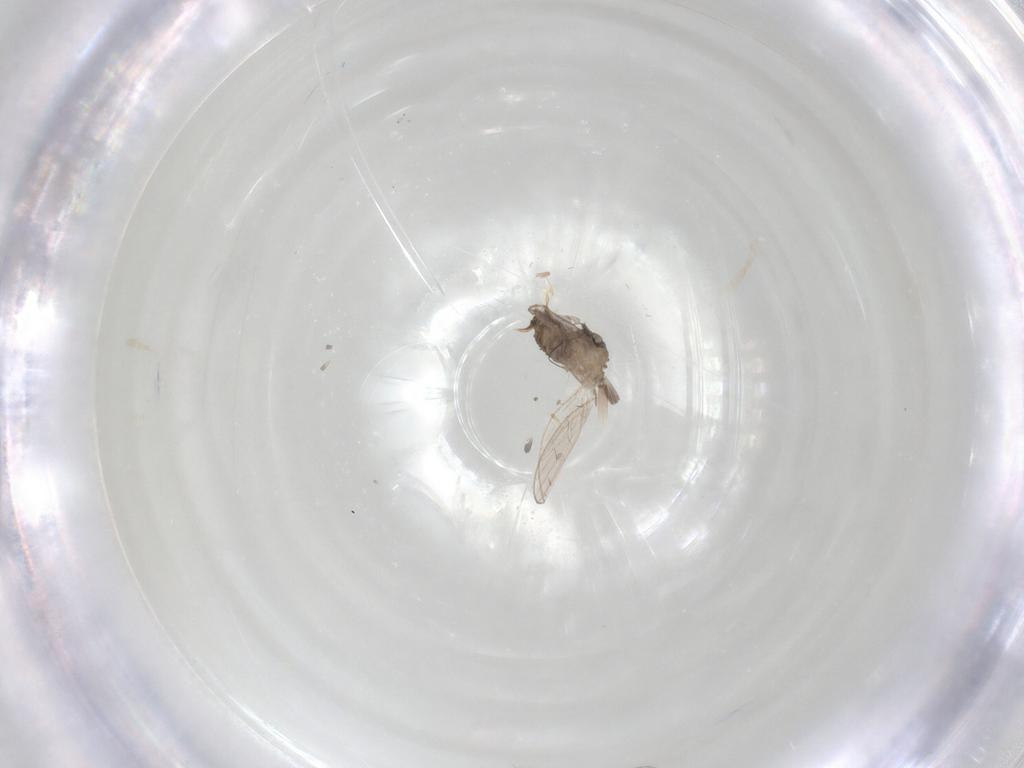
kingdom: Animalia
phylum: Arthropoda
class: Insecta
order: Diptera
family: Psychodidae
